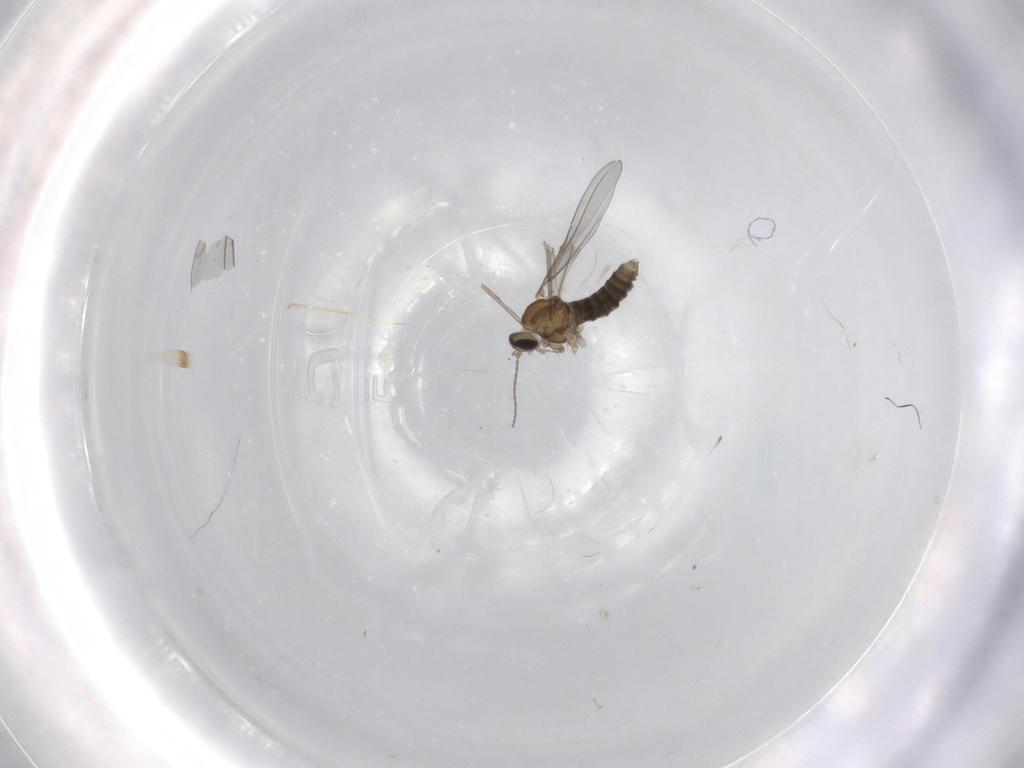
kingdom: Animalia
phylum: Arthropoda
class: Insecta
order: Diptera
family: Cecidomyiidae
